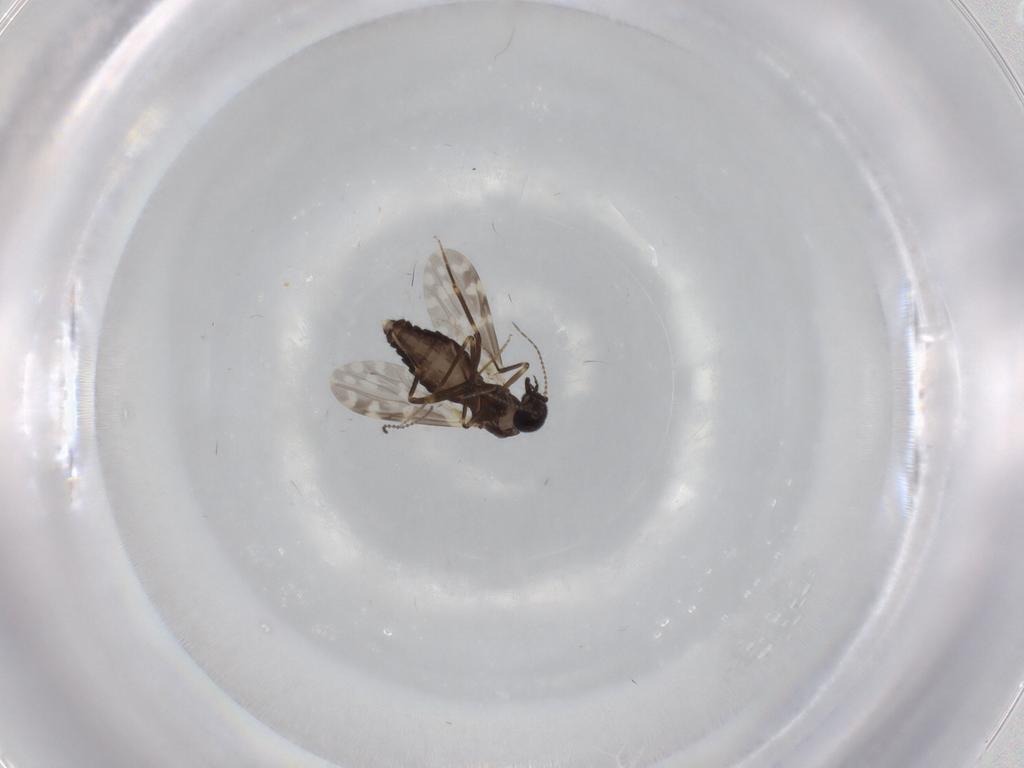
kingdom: Animalia
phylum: Arthropoda
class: Insecta
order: Diptera
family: Ceratopogonidae
